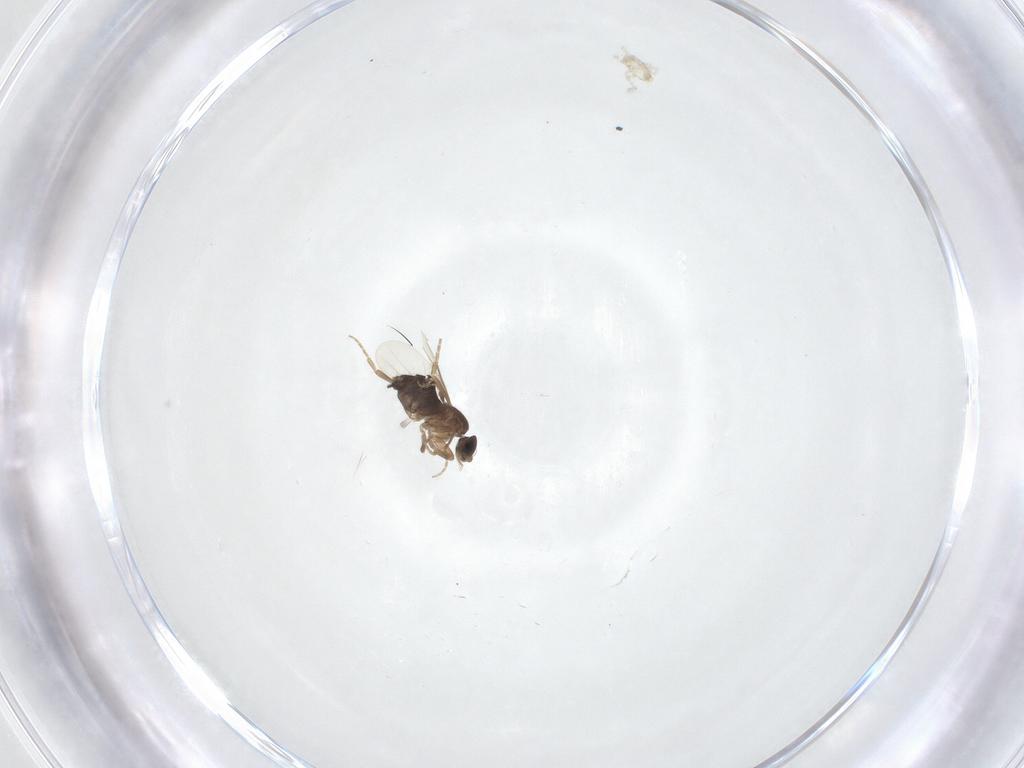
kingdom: Animalia
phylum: Arthropoda
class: Insecta
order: Diptera
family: Phoridae
